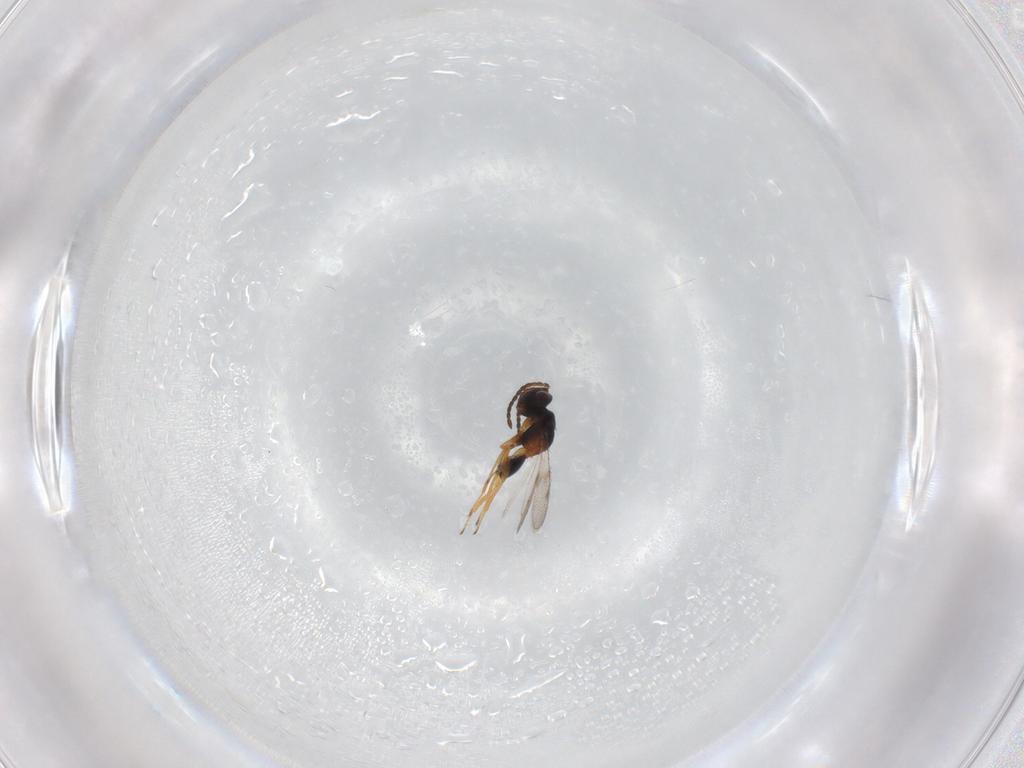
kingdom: Animalia
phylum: Arthropoda
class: Insecta
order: Hymenoptera
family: Diparidae
